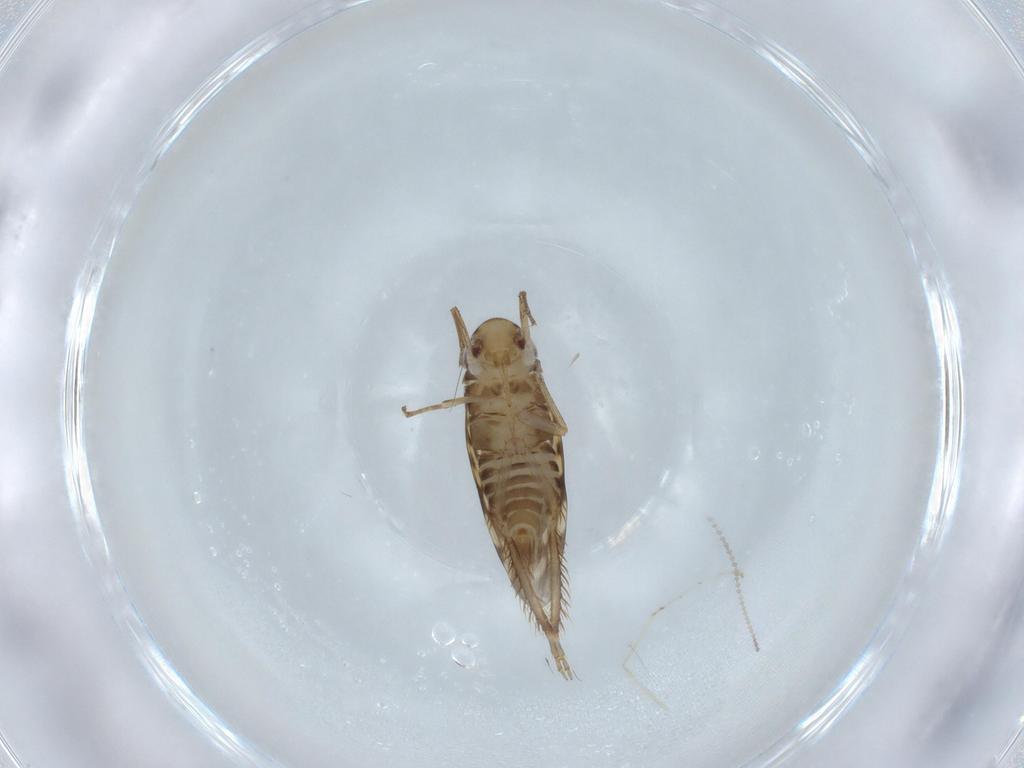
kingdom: Animalia
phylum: Arthropoda
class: Insecta
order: Hemiptera
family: Cicadellidae
